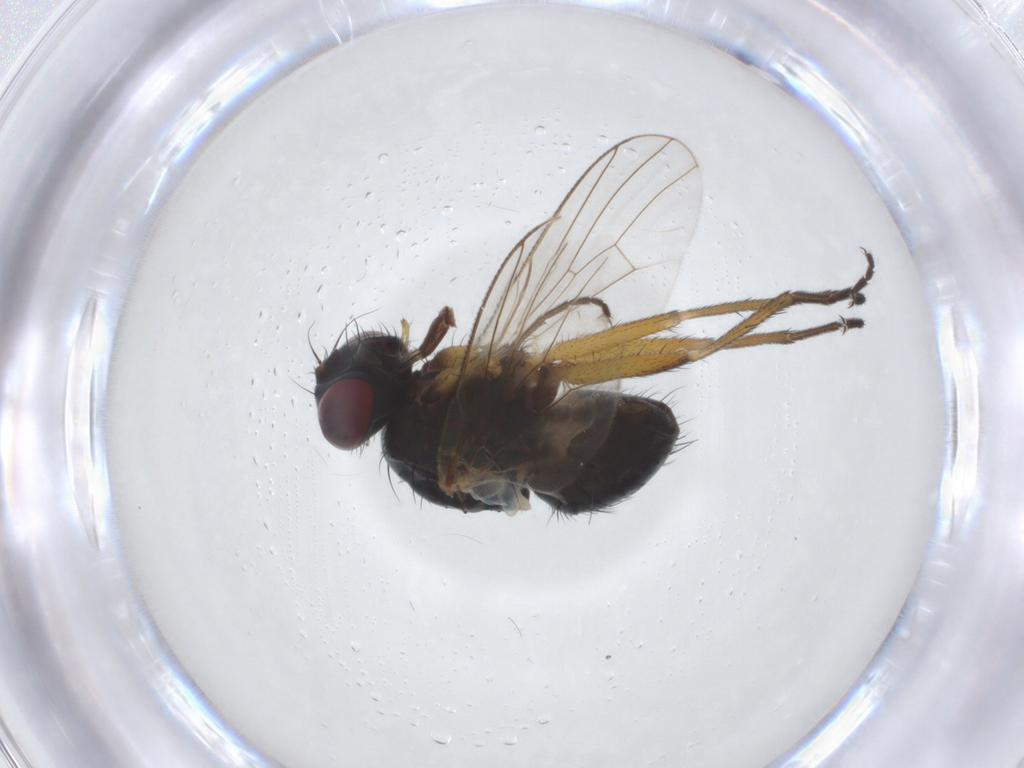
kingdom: Animalia
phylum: Arthropoda
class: Insecta
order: Diptera
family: Muscidae
